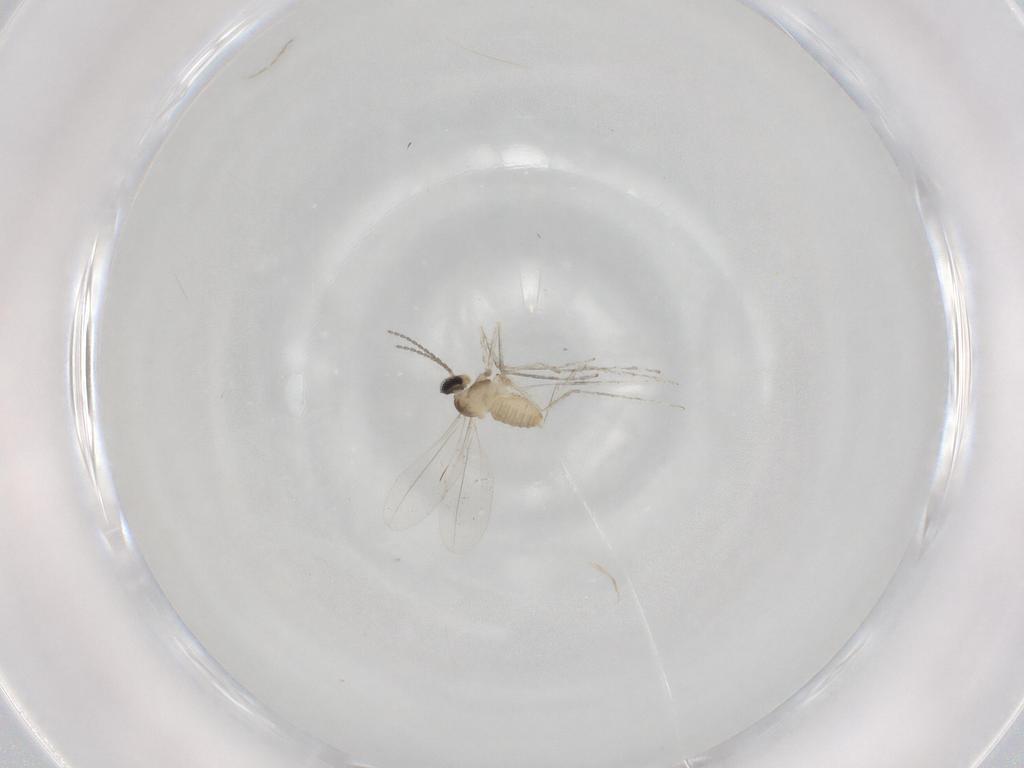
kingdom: Animalia
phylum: Arthropoda
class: Insecta
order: Diptera
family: Cecidomyiidae
